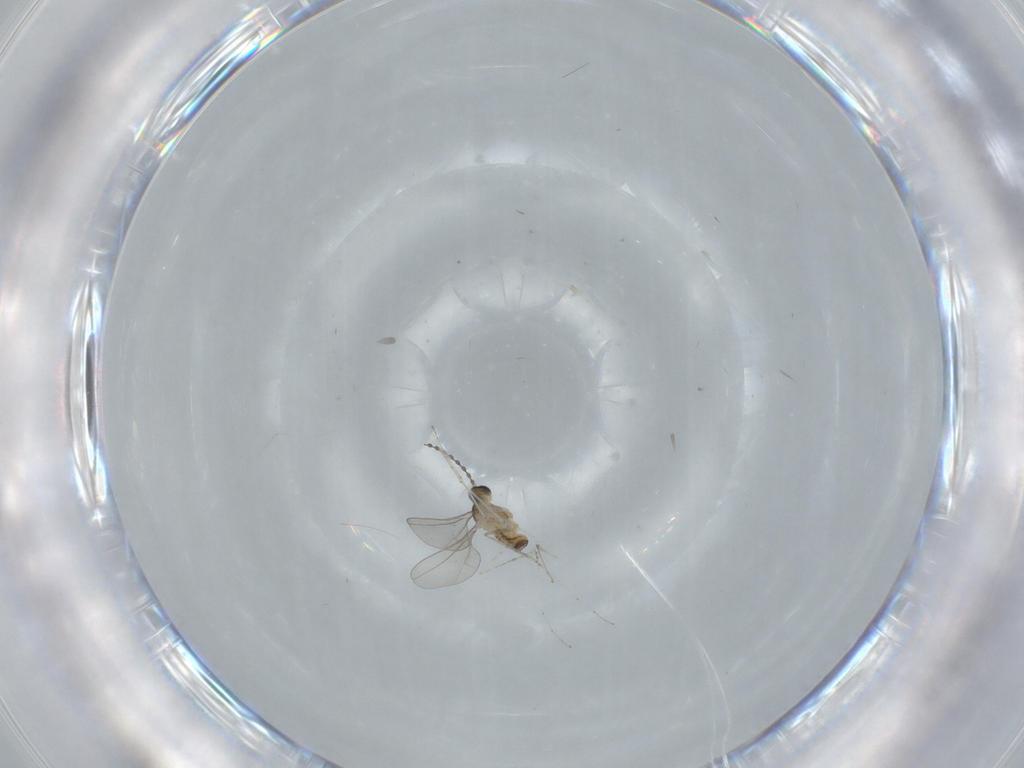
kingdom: Animalia
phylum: Arthropoda
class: Insecta
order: Diptera
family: Cecidomyiidae
